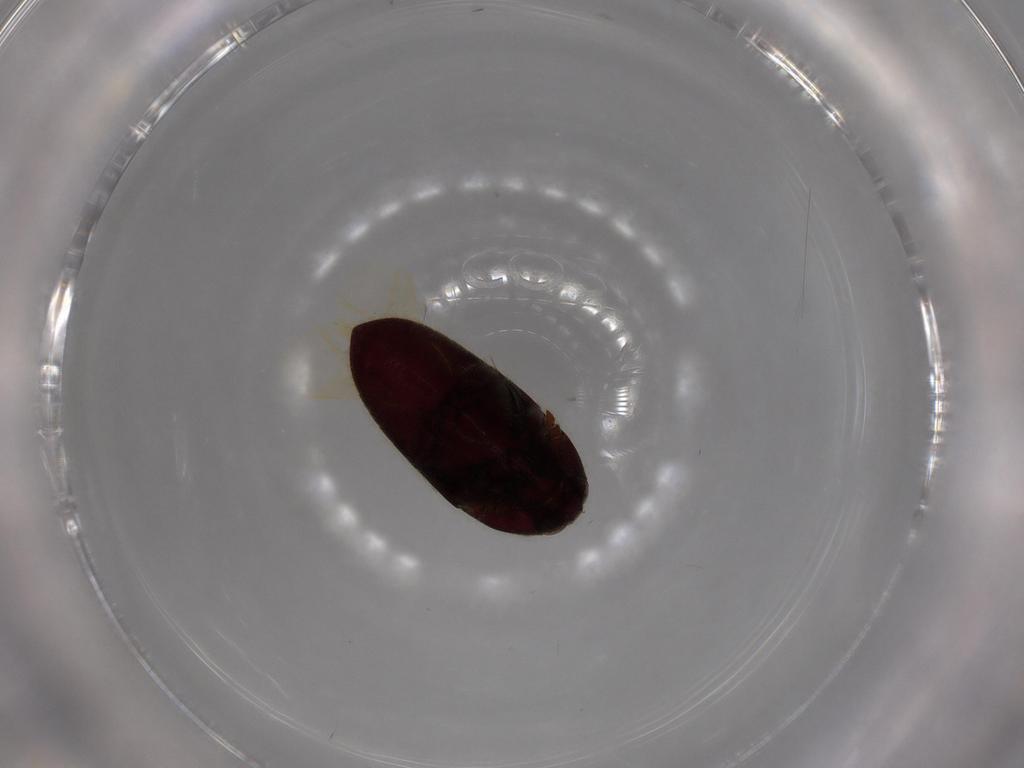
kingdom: Animalia
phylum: Arthropoda
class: Insecta
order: Coleoptera
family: Throscidae
